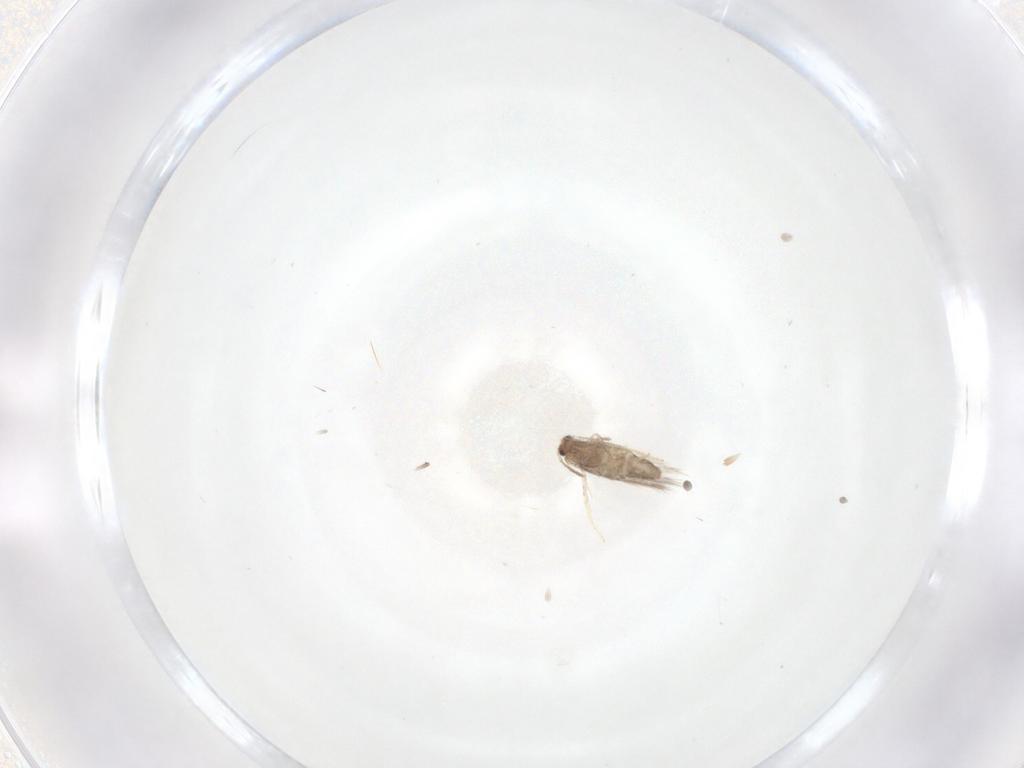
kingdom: Animalia
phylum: Arthropoda
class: Insecta
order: Lepidoptera
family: Nepticulidae
